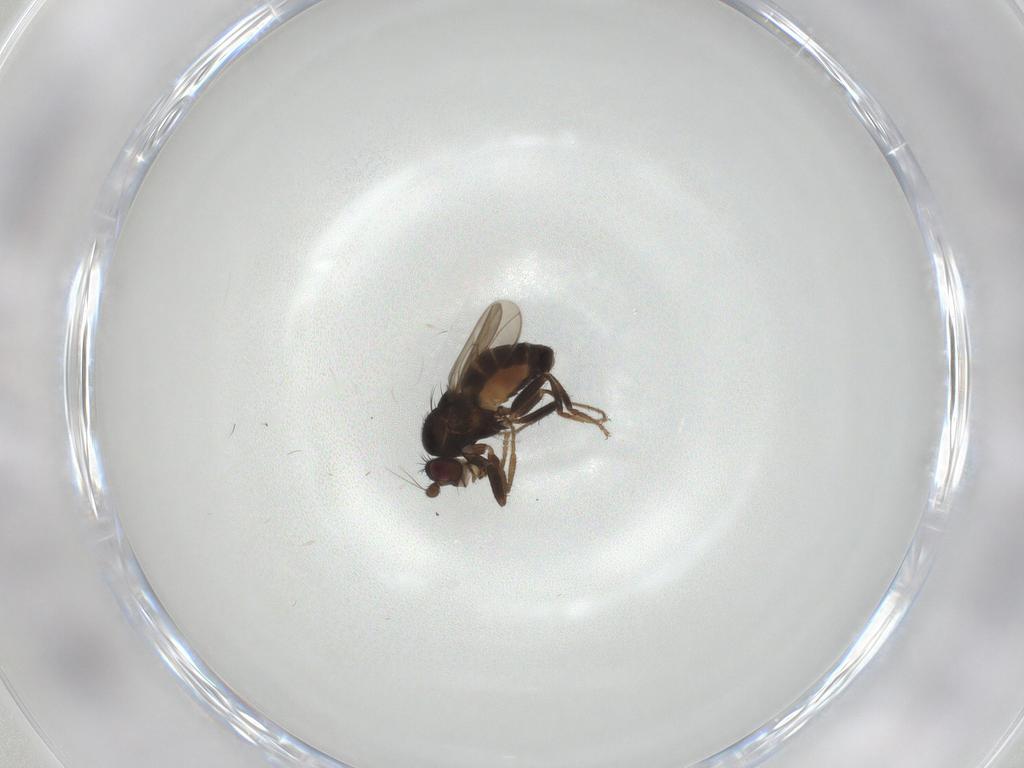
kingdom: Animalia
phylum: Arthropoda
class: Insecta
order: Diptera
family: Sphaeroceridae
